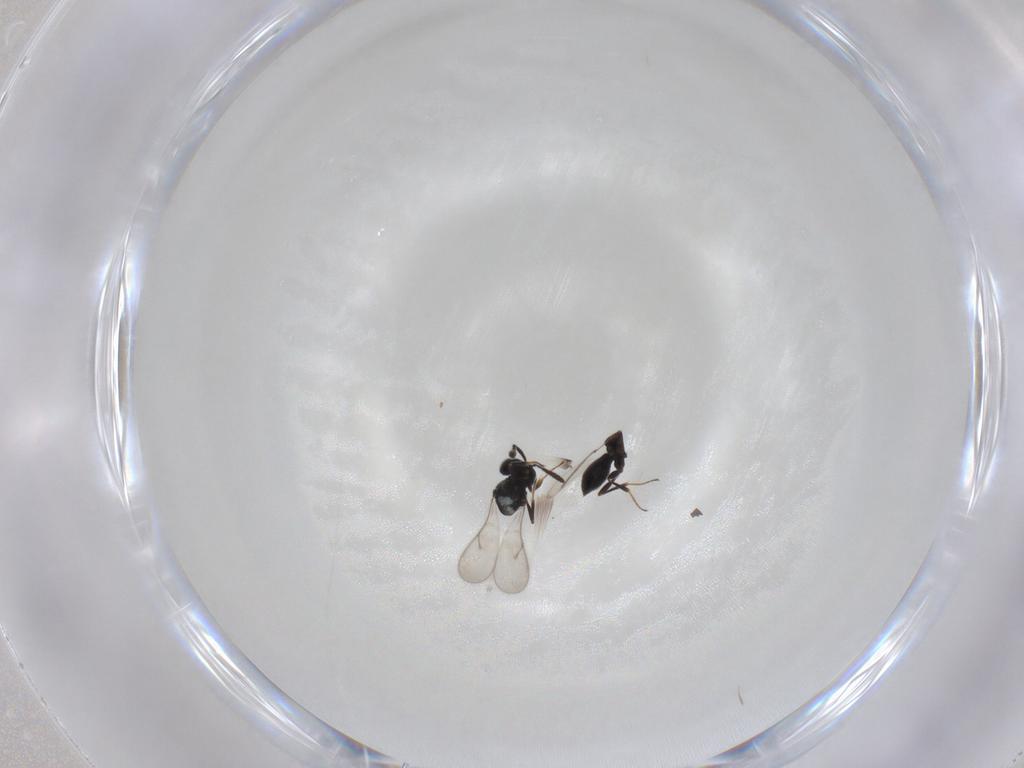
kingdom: Animalia
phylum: Arthropoda
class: Insecta
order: Hymenoptera
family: Scelionidae
